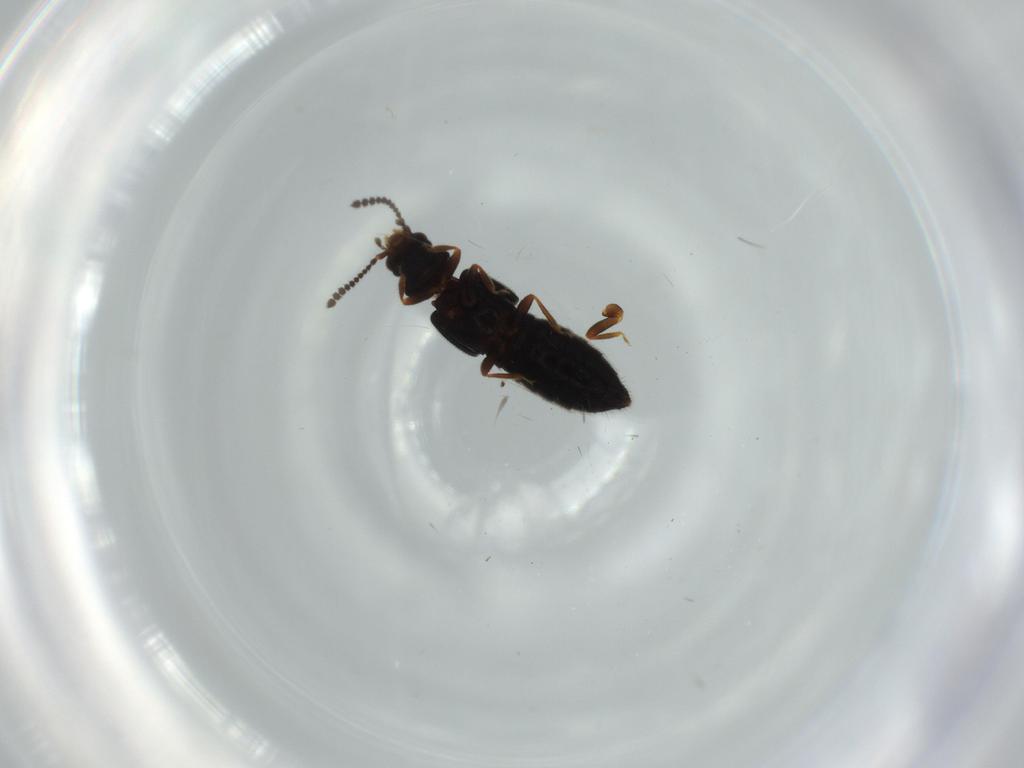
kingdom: Animalia
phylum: Arthropoda
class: Insecta
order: Coleoptera
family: Staphylinidae
